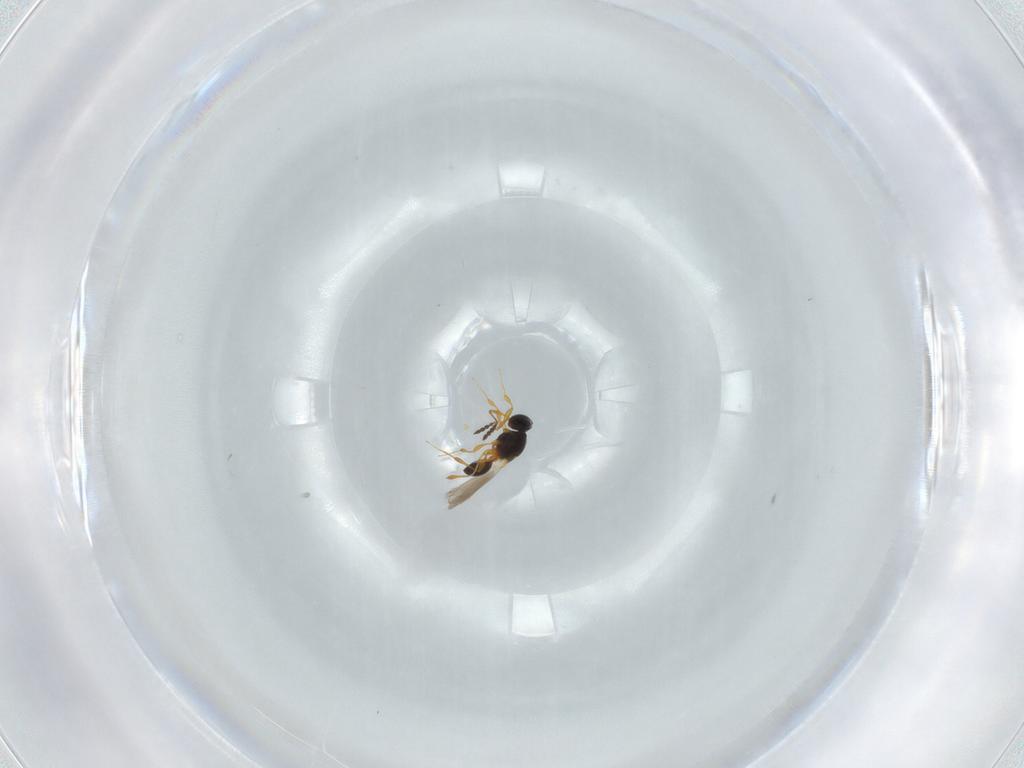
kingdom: Animalia
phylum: Arthropoda
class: Insecta
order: Hymenoptera
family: Platygastridae
